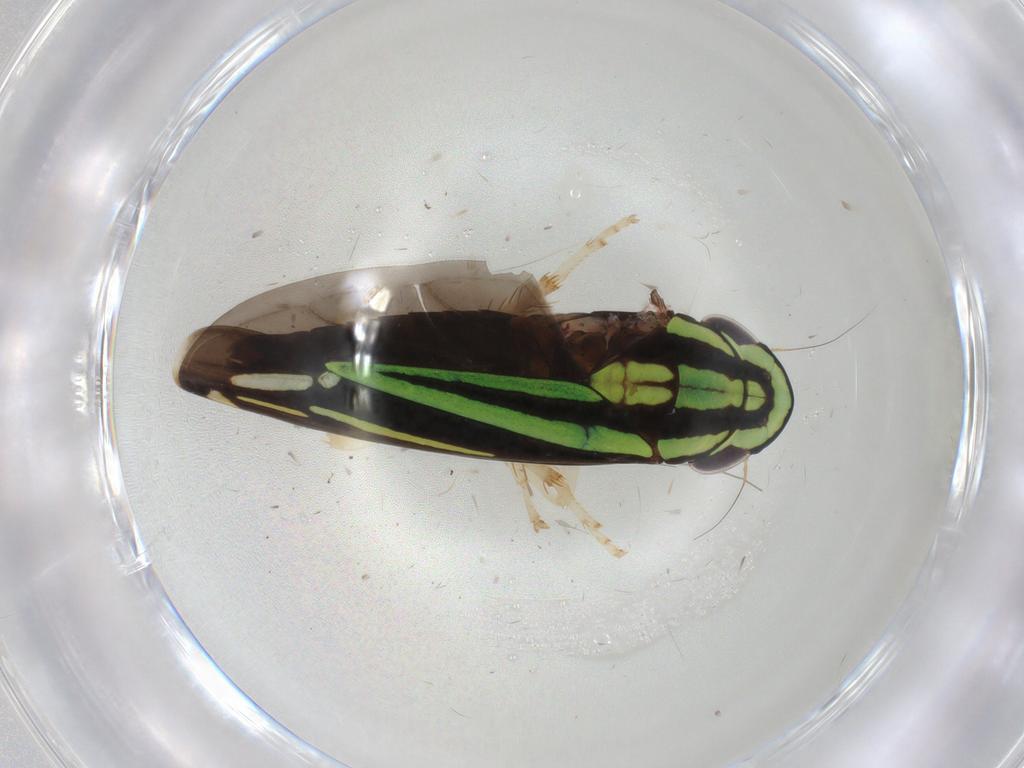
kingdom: Animalia
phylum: Arthropoda
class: Insecta
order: Hemiptera
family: Cicadellidae
